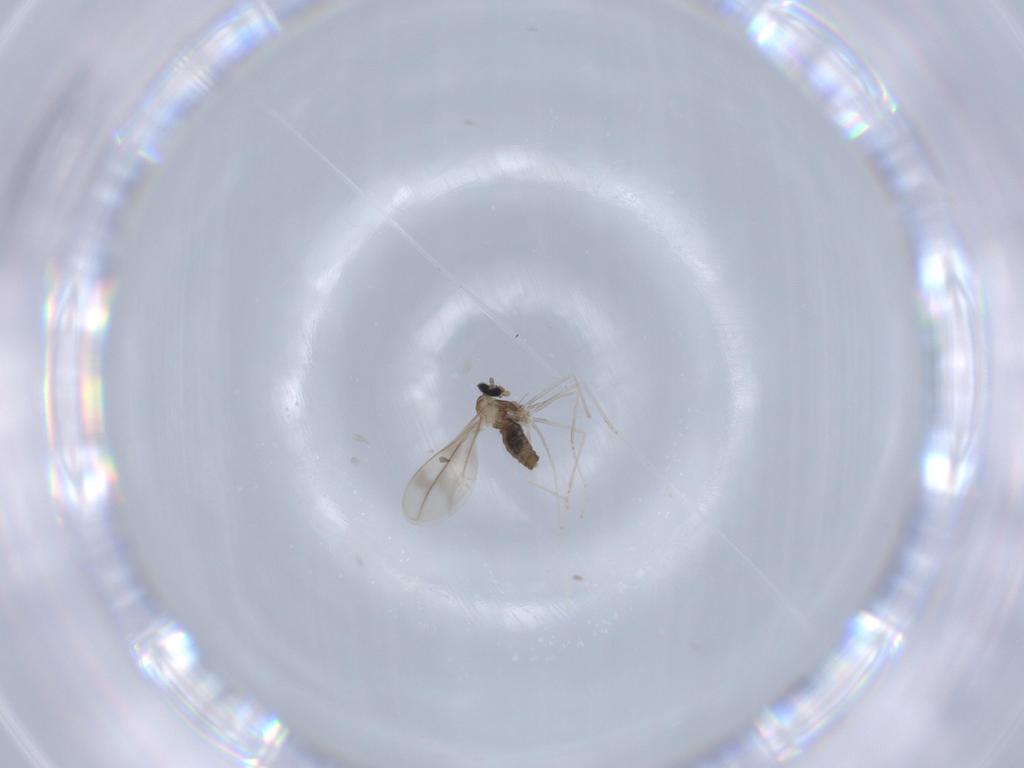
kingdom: Animalia
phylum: Arthropoda
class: Insecta
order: Diptera
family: Cecidomyiidae
